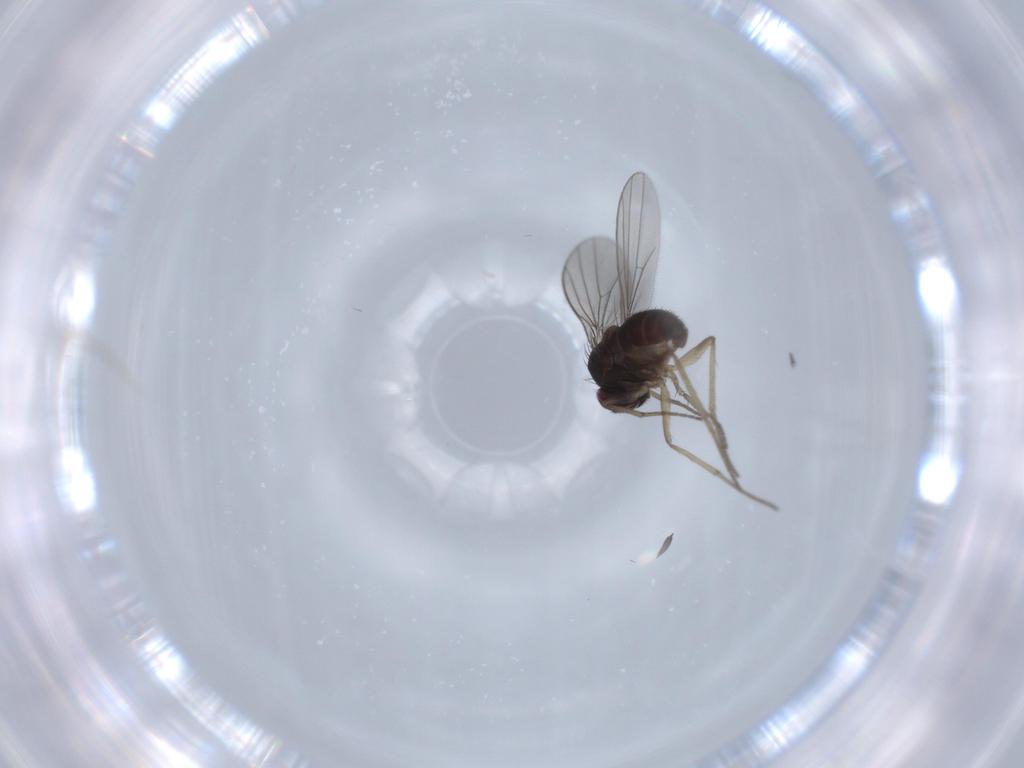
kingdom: Animalia
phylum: Arthropoda
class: Insecta
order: Diptera
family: Dolichopodidae
